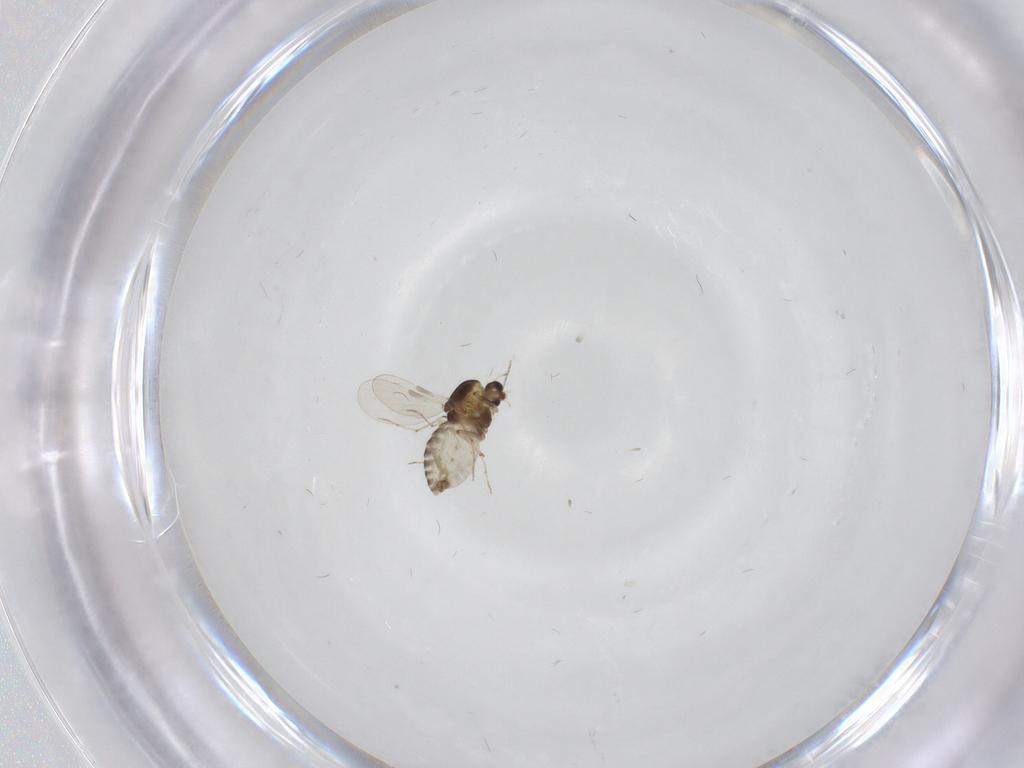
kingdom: Animalia
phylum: Arthropoda
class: Insecta
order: Diptera
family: Chironomidae
